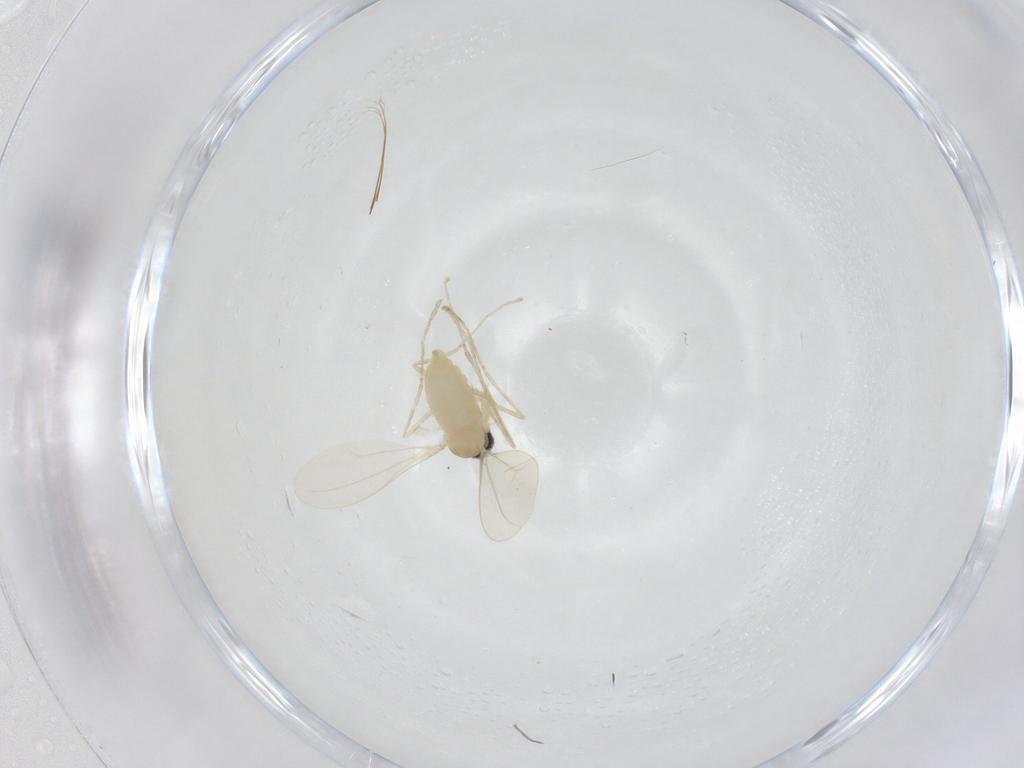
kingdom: Animalia
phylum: Arthropoda
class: Insecta
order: Diptera
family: Cecidomyiidae
